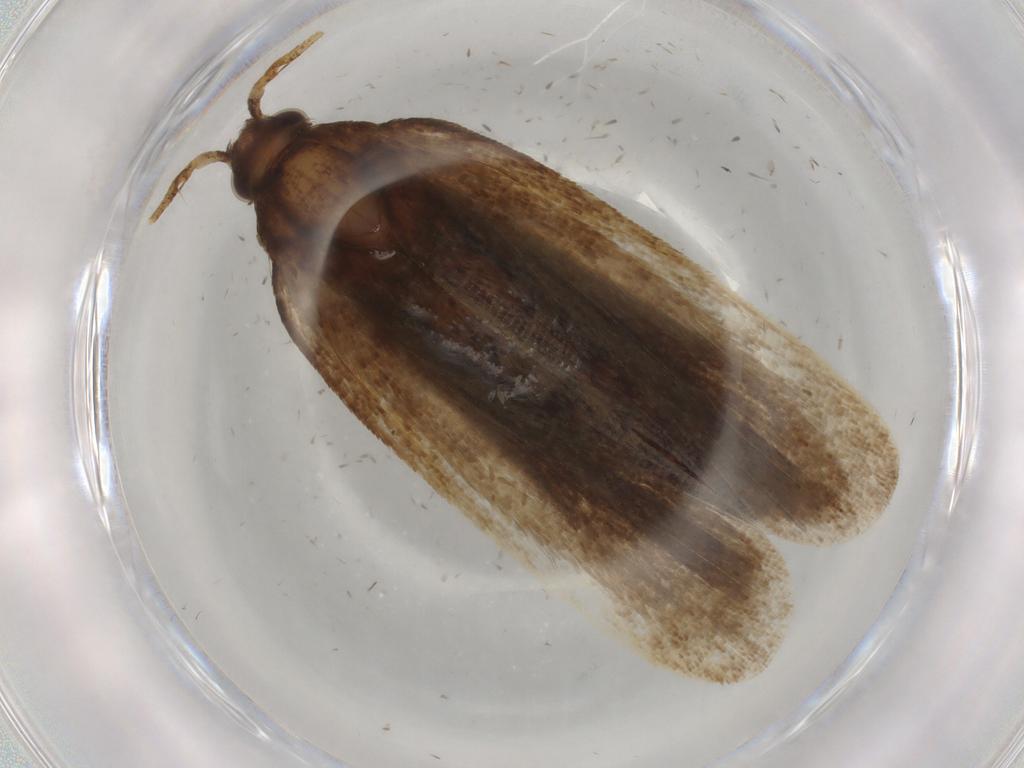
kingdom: Animalia
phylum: Arthropoda
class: Insecta
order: Lepidoptera
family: Autostichidae
